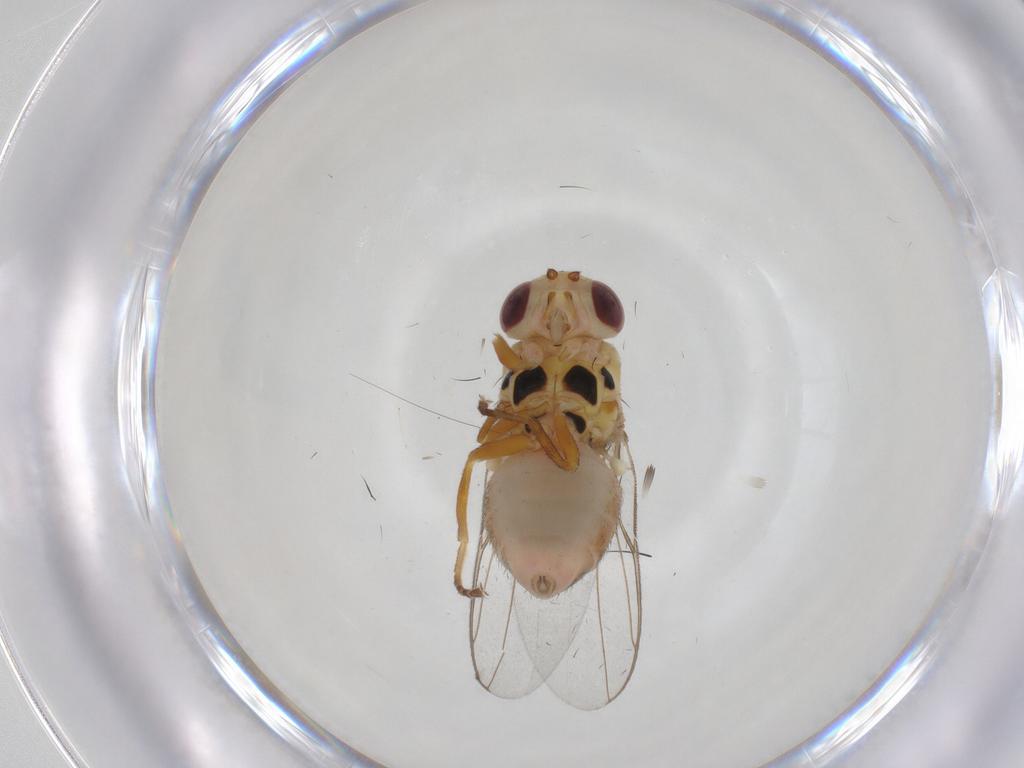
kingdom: Animalia
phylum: Arthropoda
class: Insecta
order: Diptera
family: Chloropidae
